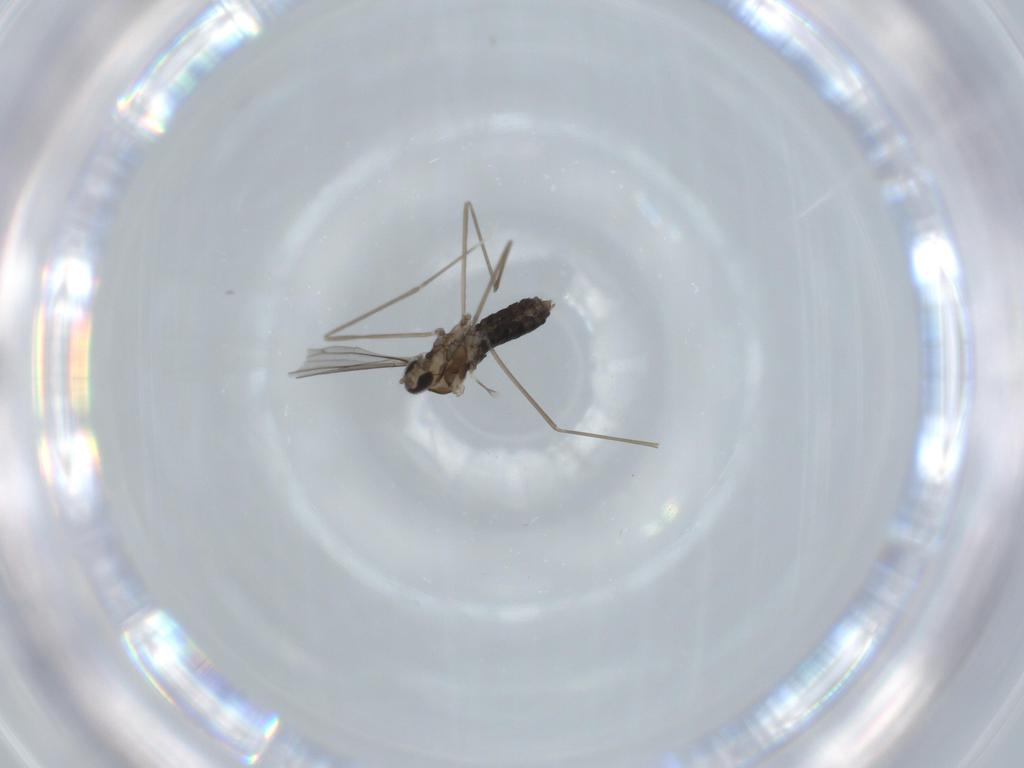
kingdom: Animalia
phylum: Arthropoda
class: Insecta
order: Diptera
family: Cecidomyiidae
